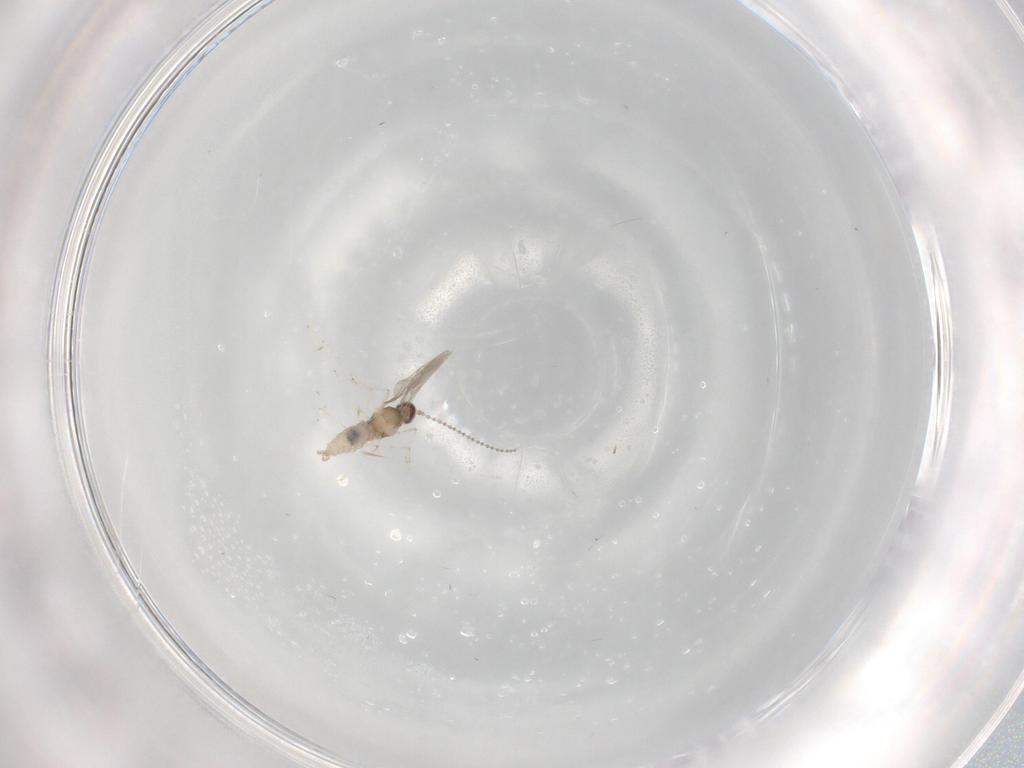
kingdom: Animalia
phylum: Arthropoda
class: Insecta
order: Diptera
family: Cecidomyiidae
